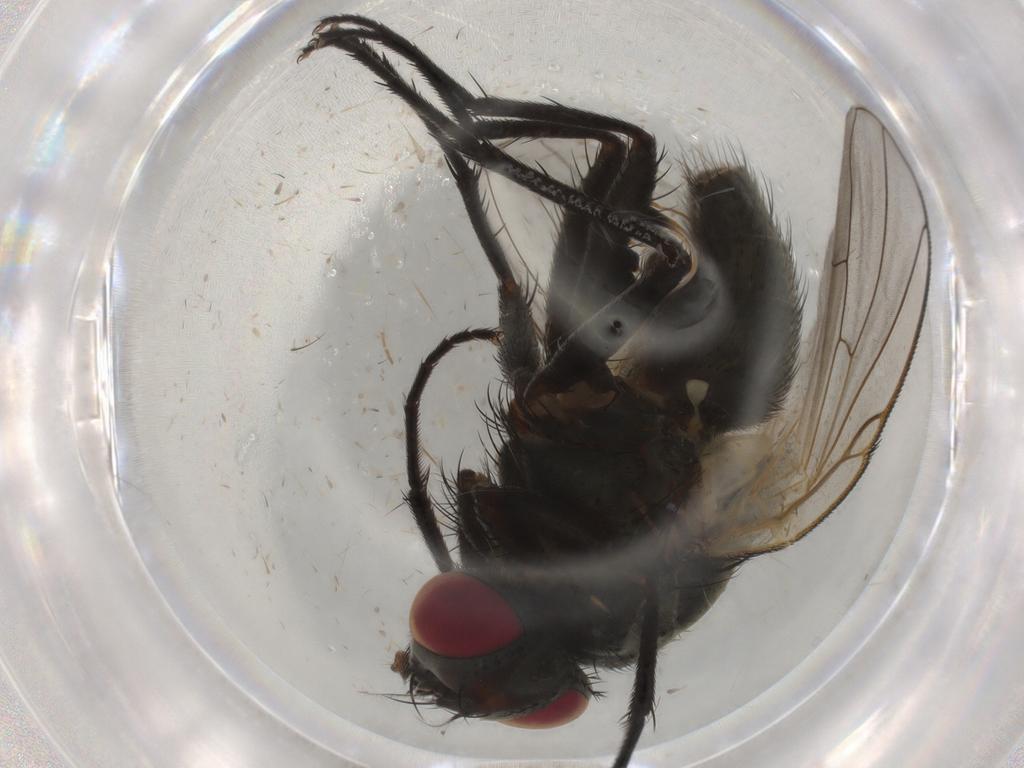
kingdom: Animalia
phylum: Arthropoda
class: Insecta
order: Diptera
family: Muscidae
